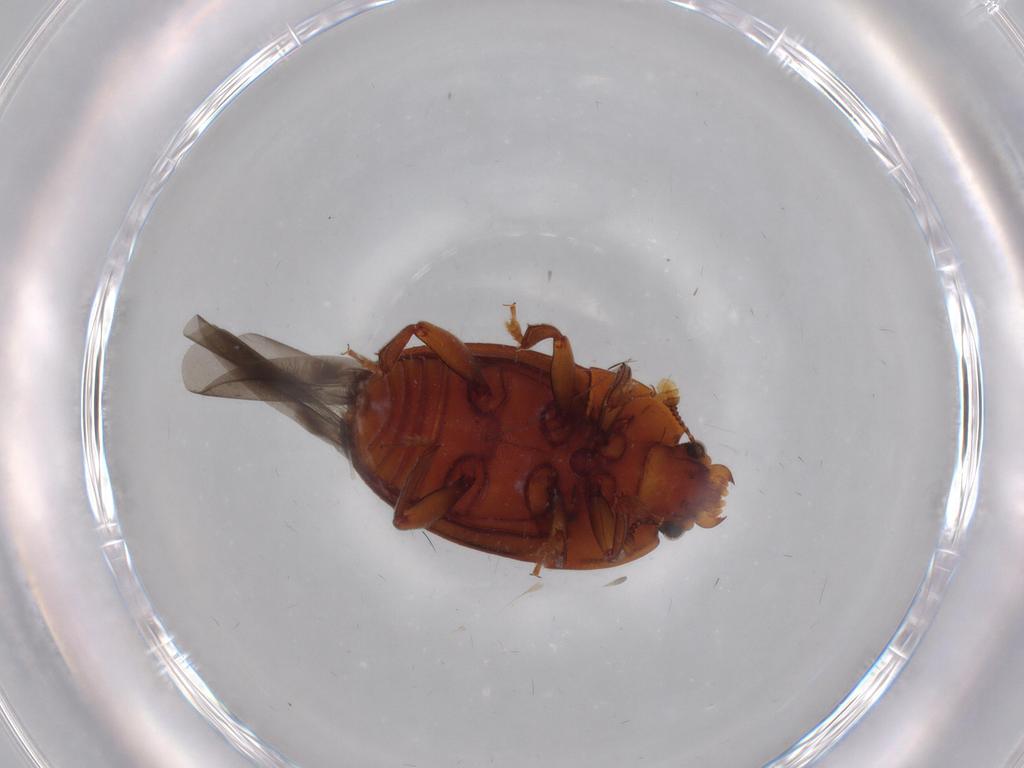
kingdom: Animalia
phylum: Arthropoda
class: Insecta
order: Coleoptera
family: Nitidulidae
